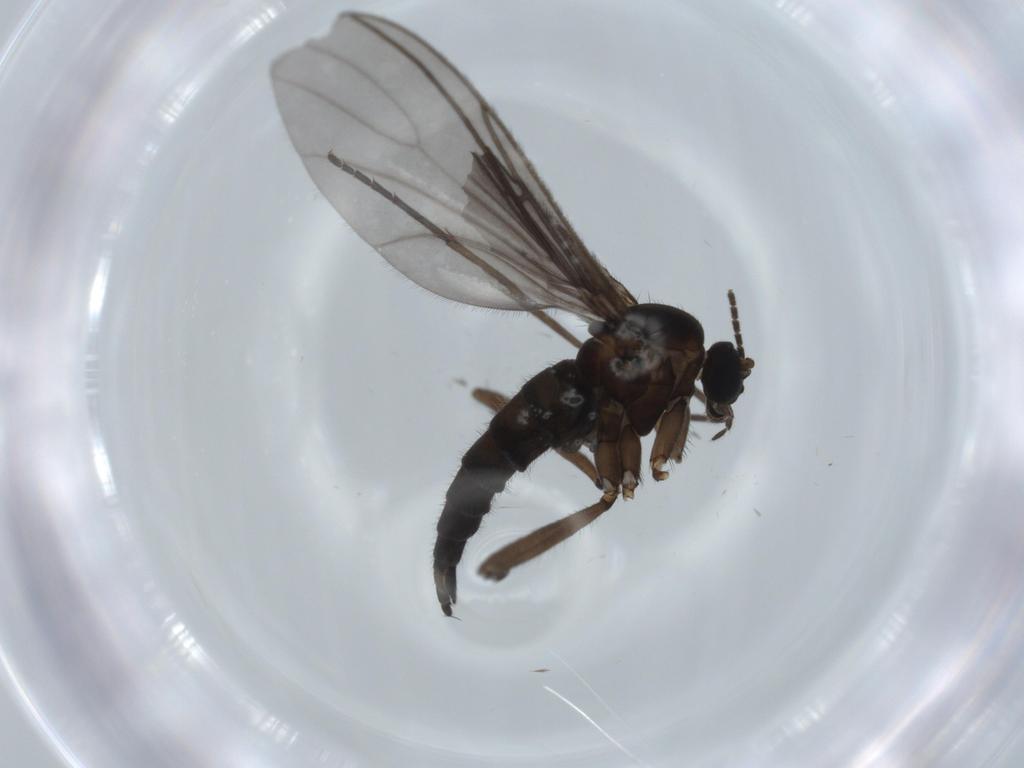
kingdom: Animalia
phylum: Arthropoda
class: Insecta
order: Diptera
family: Sciaridae
